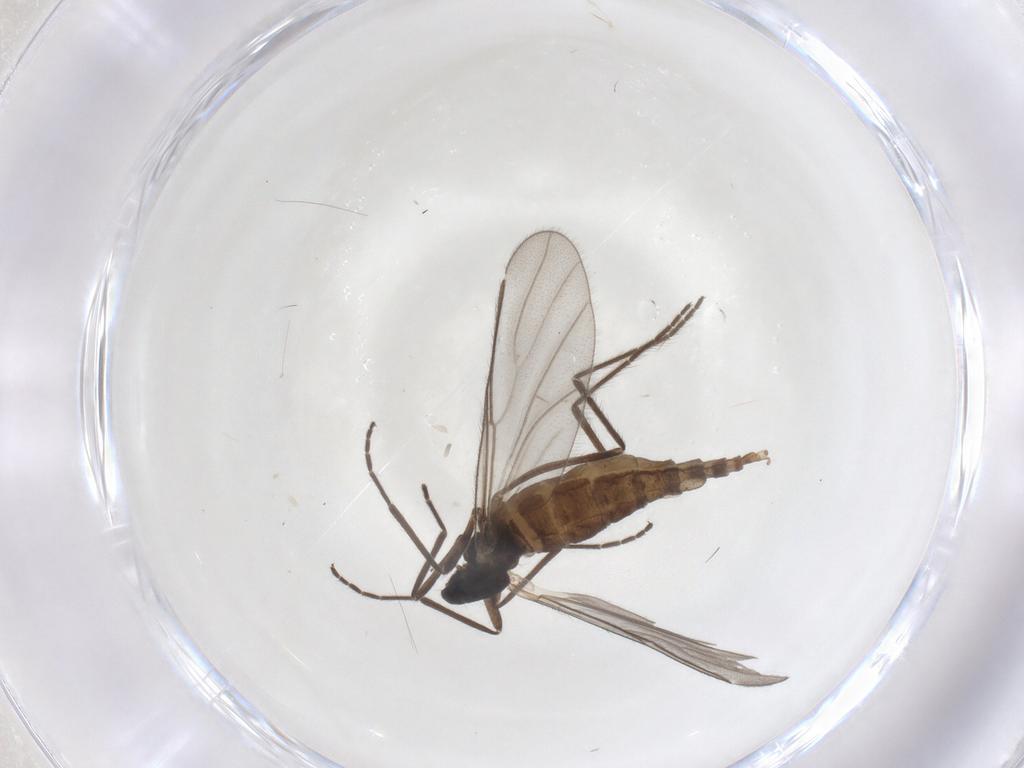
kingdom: Animalia
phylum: Arthropoda
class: Insecta
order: Diptera
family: Cecidomyiidae
